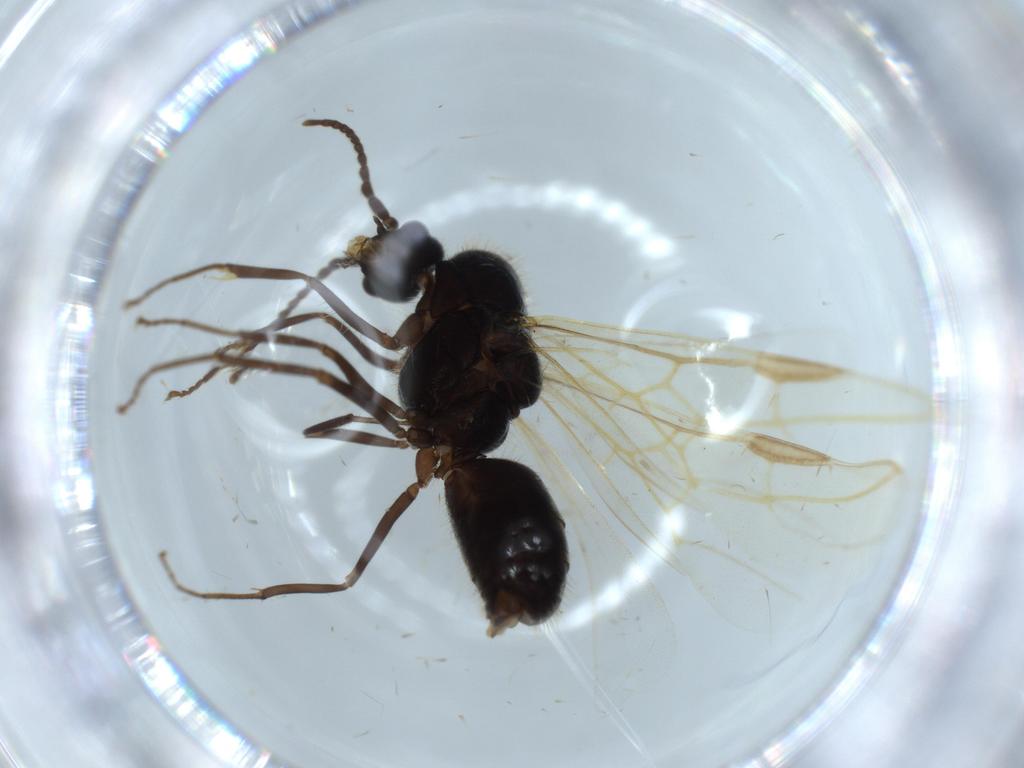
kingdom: Animalia
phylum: Arthropoda
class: Insecta
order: Hymenoptera
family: Formicidae
